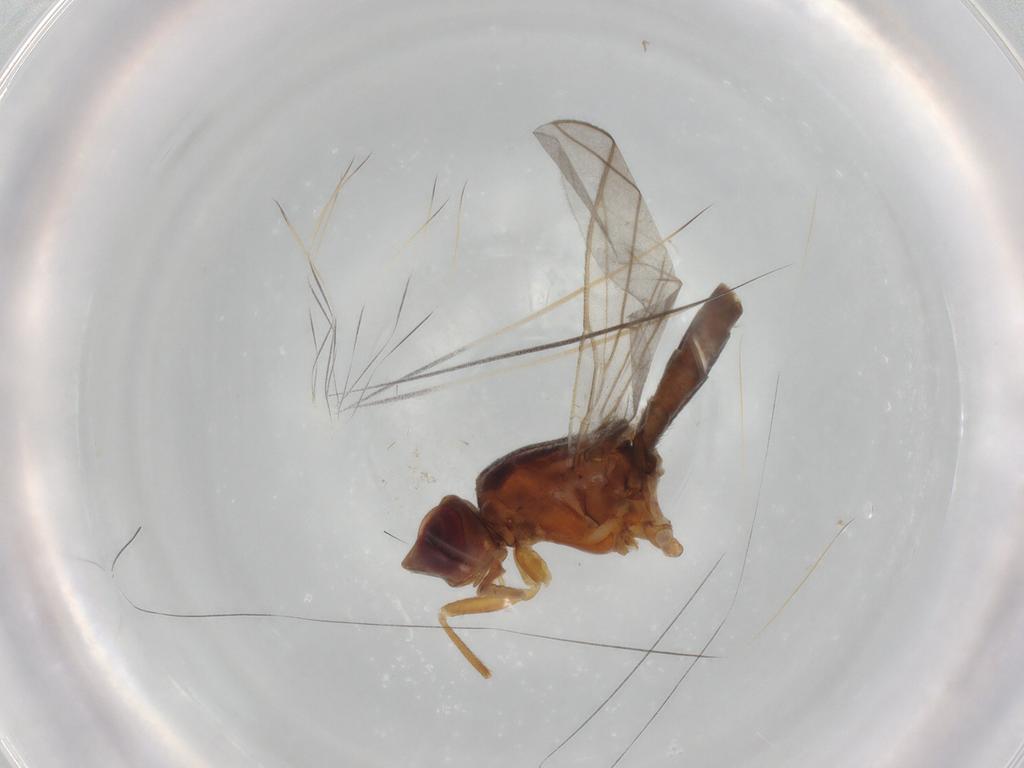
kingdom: Animalia
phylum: Arthropoda
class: Insecta
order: Diptera
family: Chloropidae
